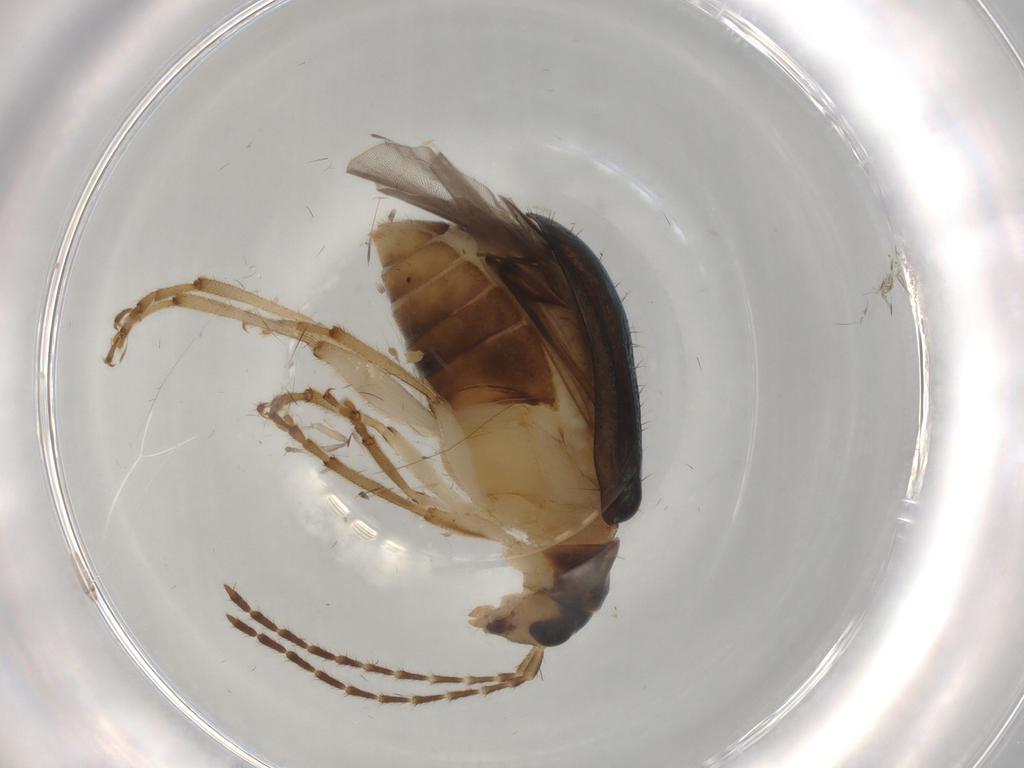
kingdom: Animalia
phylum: Arthropoda
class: Insecta
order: Coleoptera
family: Chrysomelidae
